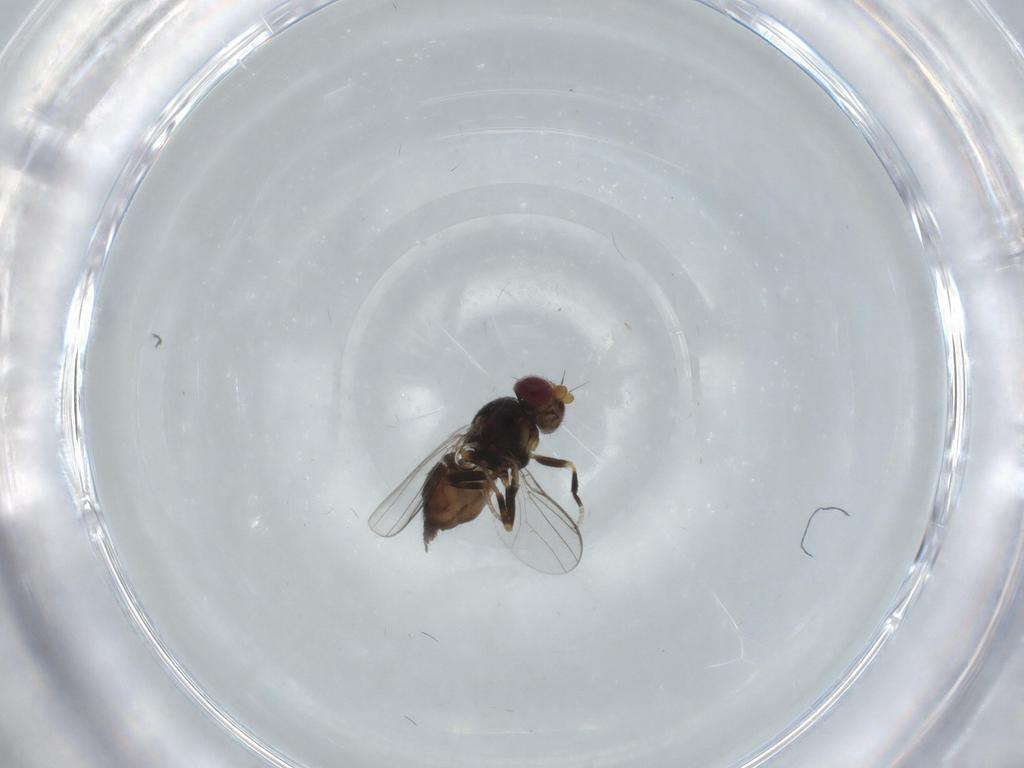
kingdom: Animalia
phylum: Arthropoda
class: Insecta
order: Diptera
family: Chloropidae
